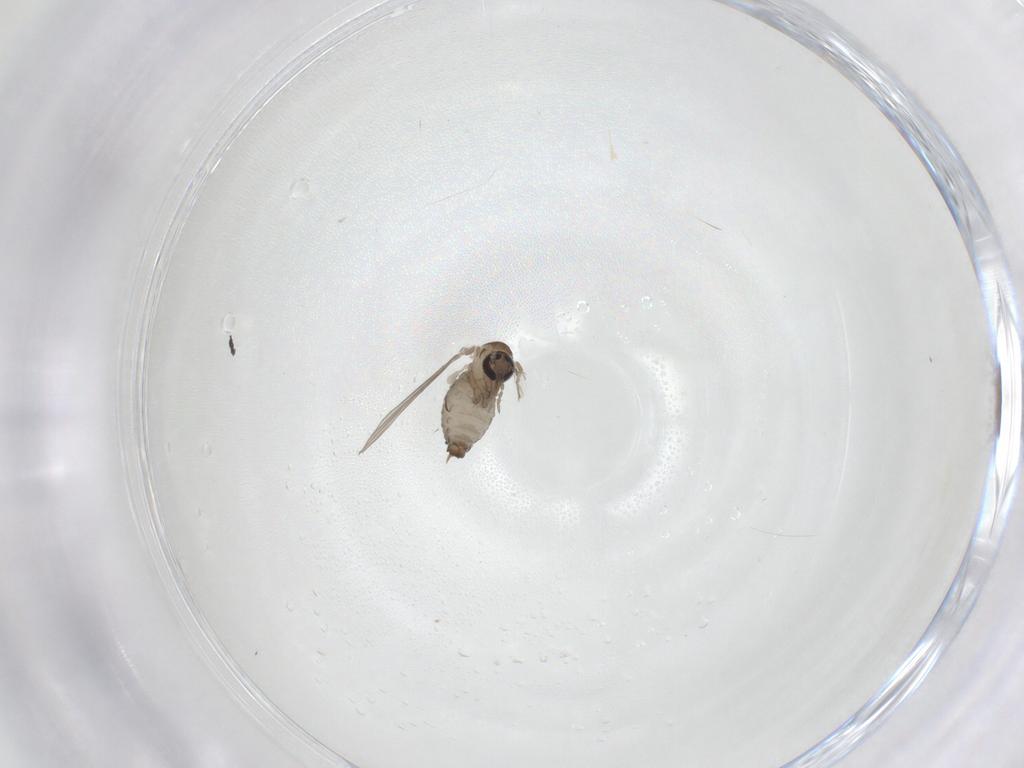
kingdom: Animalia
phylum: Arthropoda
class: Insecta
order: Diptera
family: Psychodidae
